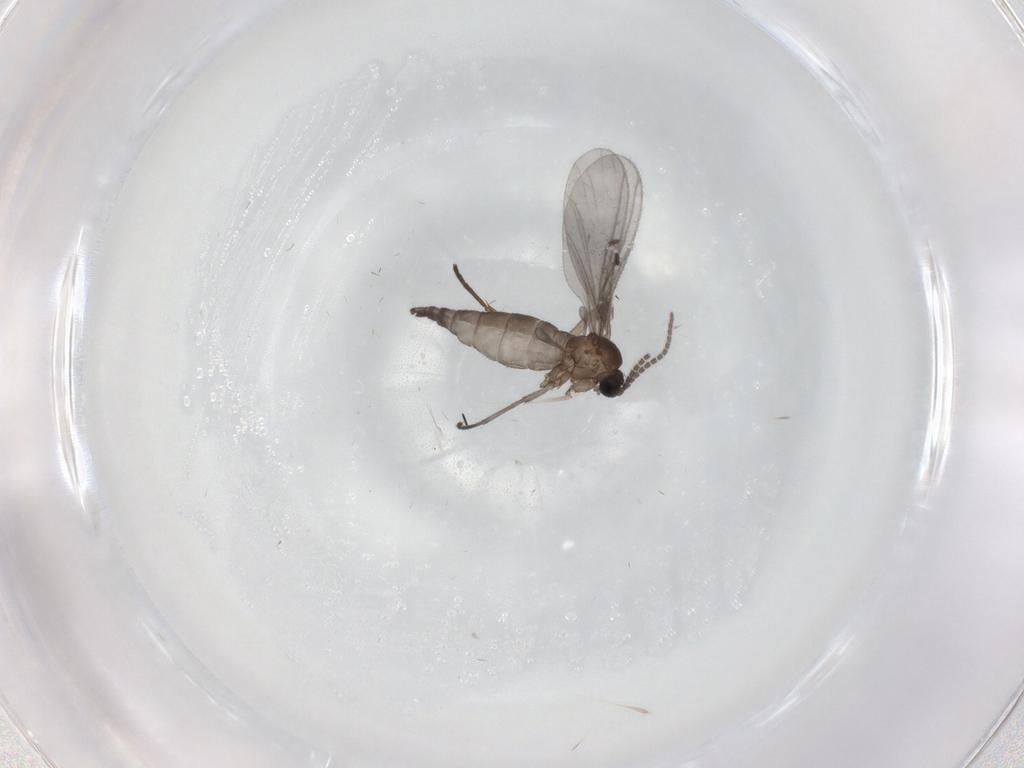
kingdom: Animalia
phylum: Arthropoda
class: Insecta
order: Diptera
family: Sciaridae
